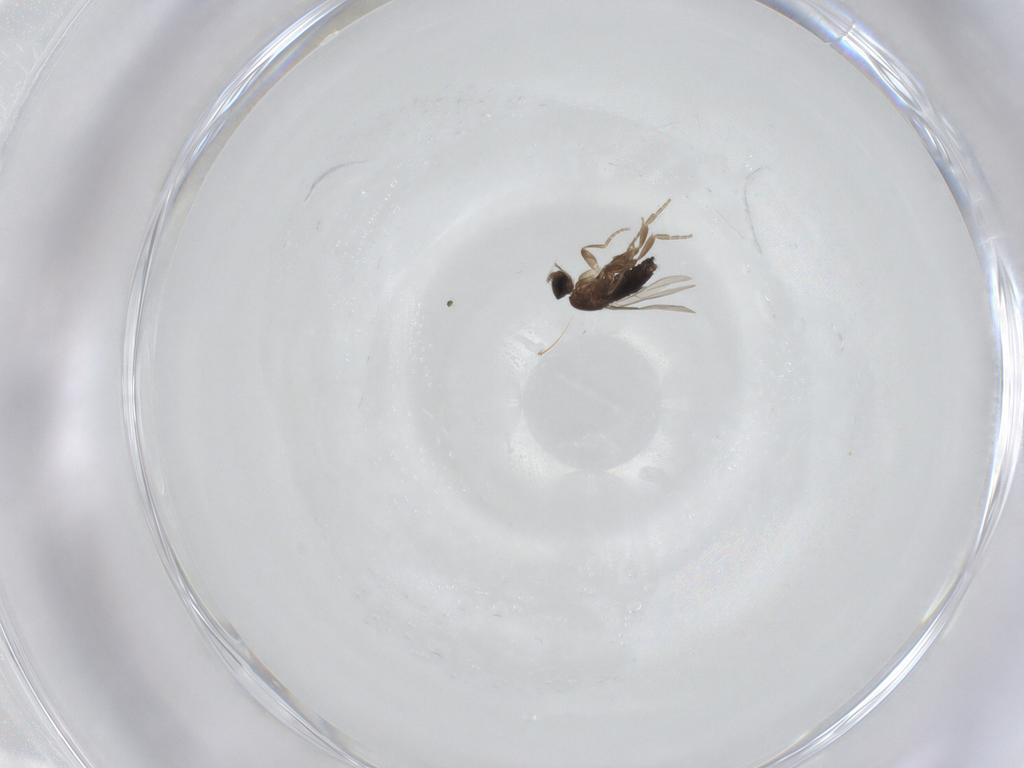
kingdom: Animalia
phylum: Arthropoda
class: Insecta
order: Diptera
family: Phoridae
